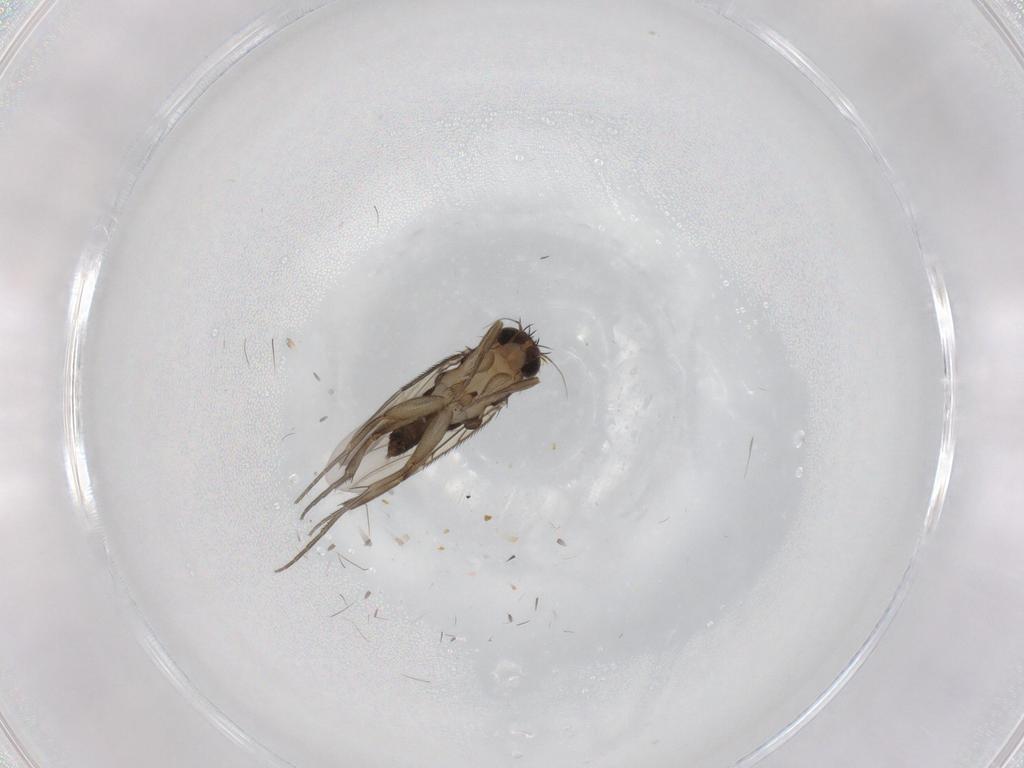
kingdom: Animalia
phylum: Arthropoda
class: Insecta
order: Diptera
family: Phoridae
